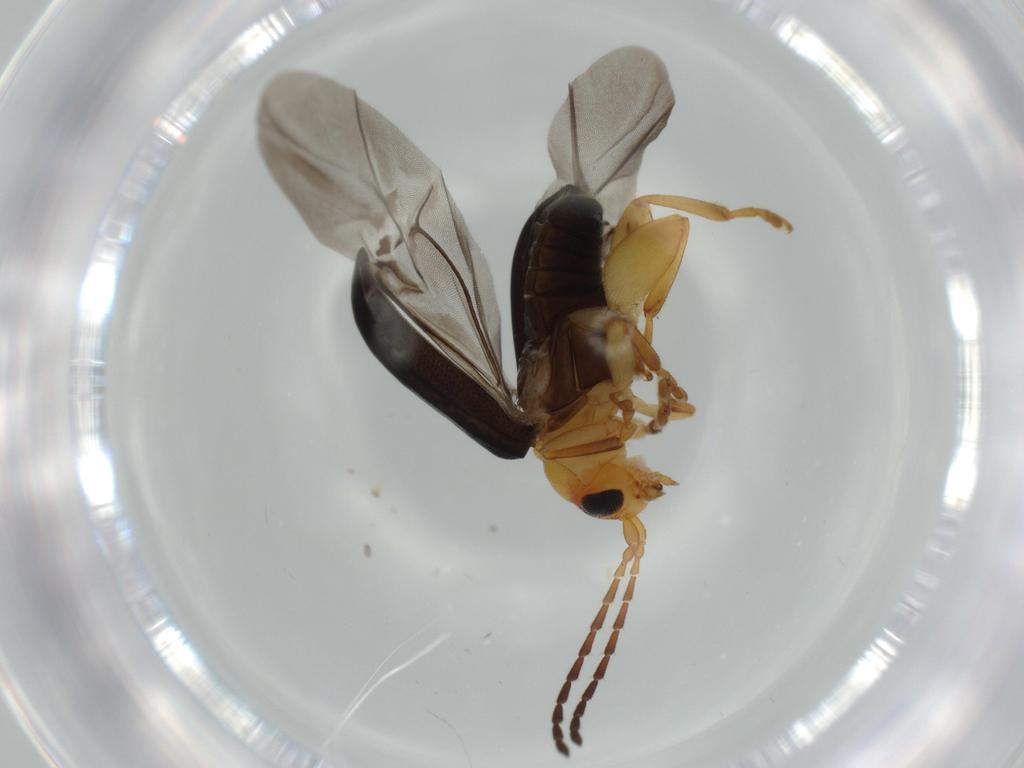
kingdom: Animalia
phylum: Arthropoda
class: Insecta
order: Coleoptera
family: Chrysomelidae
